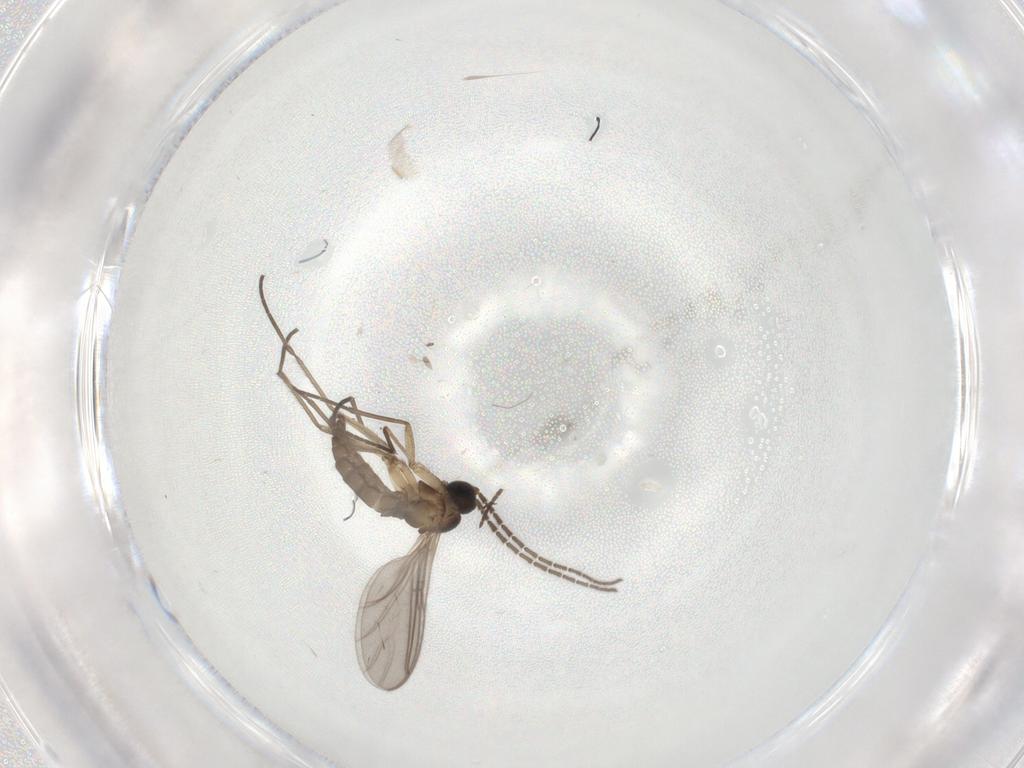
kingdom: Animalia
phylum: Arthropoda
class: Insecta
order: Diptera
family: Sciaridae
